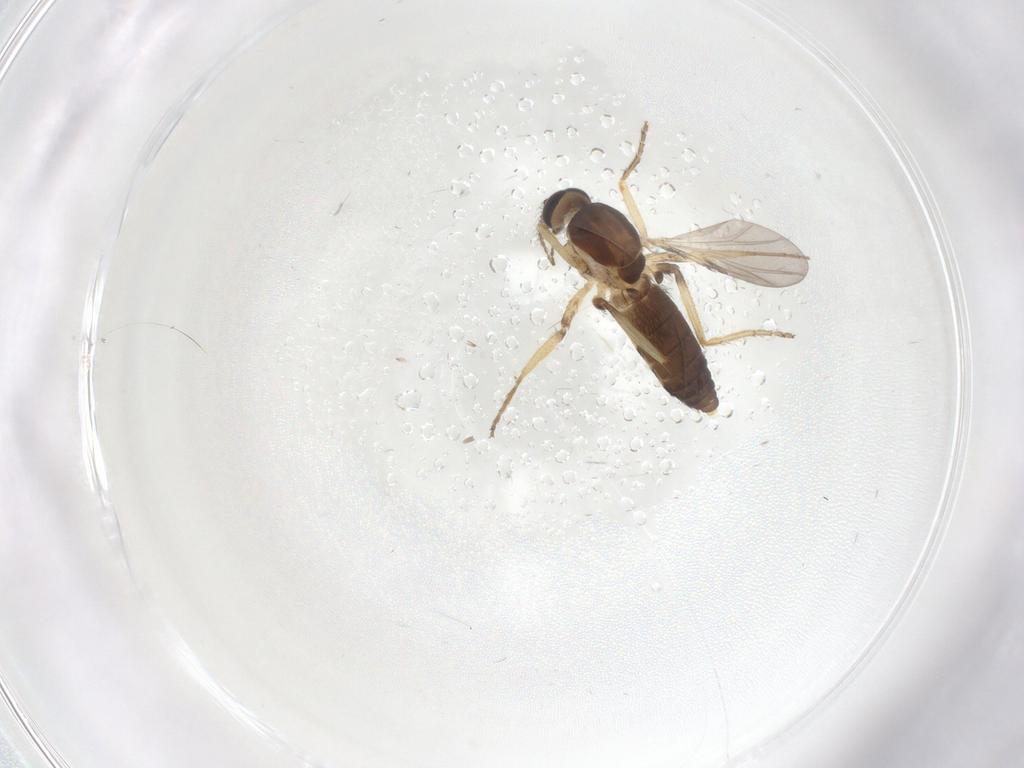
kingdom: Animalia
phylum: Arthropoda
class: Insecta
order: Diptera
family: Ceratopogonidae
